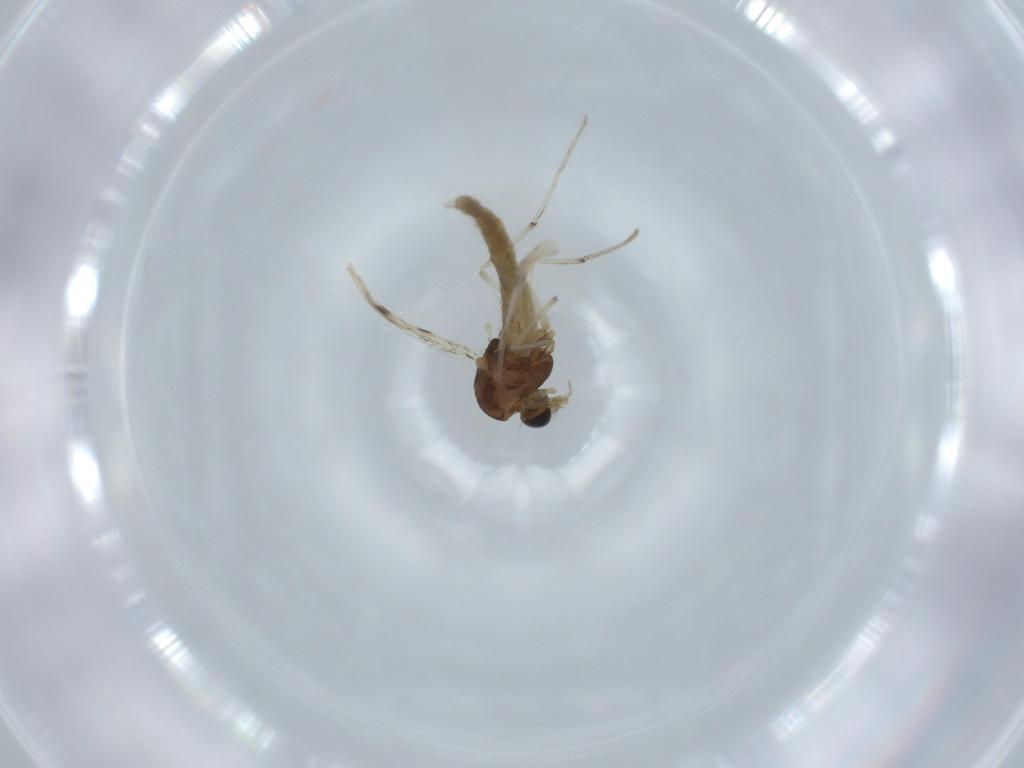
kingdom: Animalia
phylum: Arthropoda
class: Insecta
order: Diptera
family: Chironomidae
